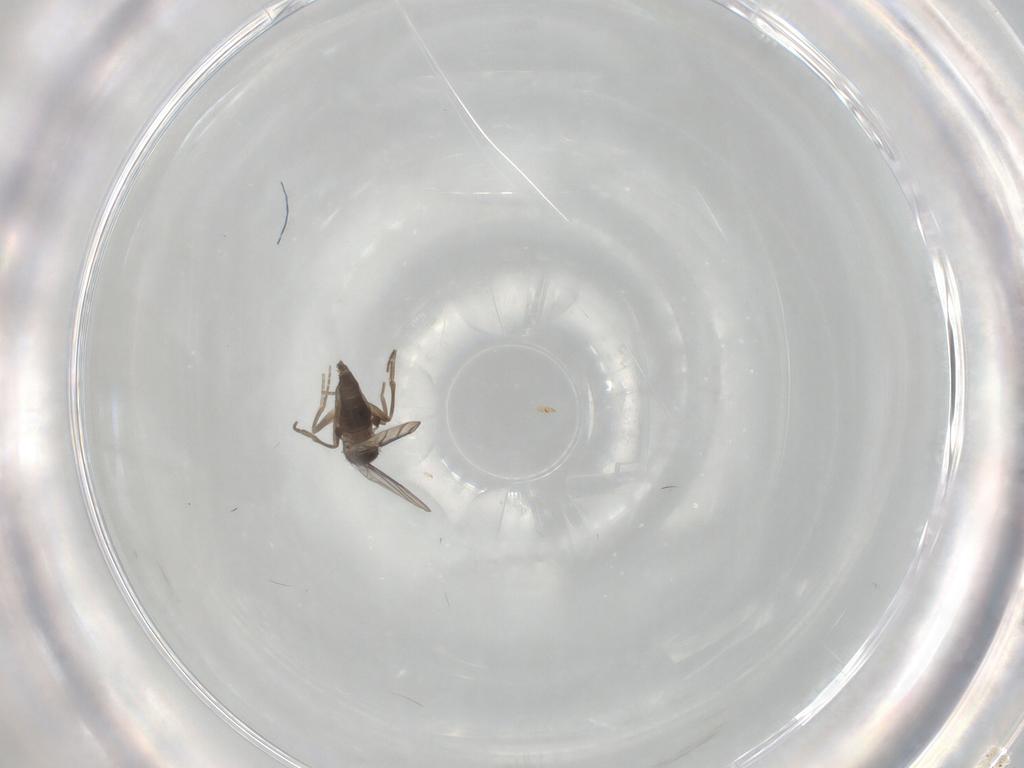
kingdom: Animalia
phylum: Arthropoda
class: Insecta
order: Diptera
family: Phoridae
